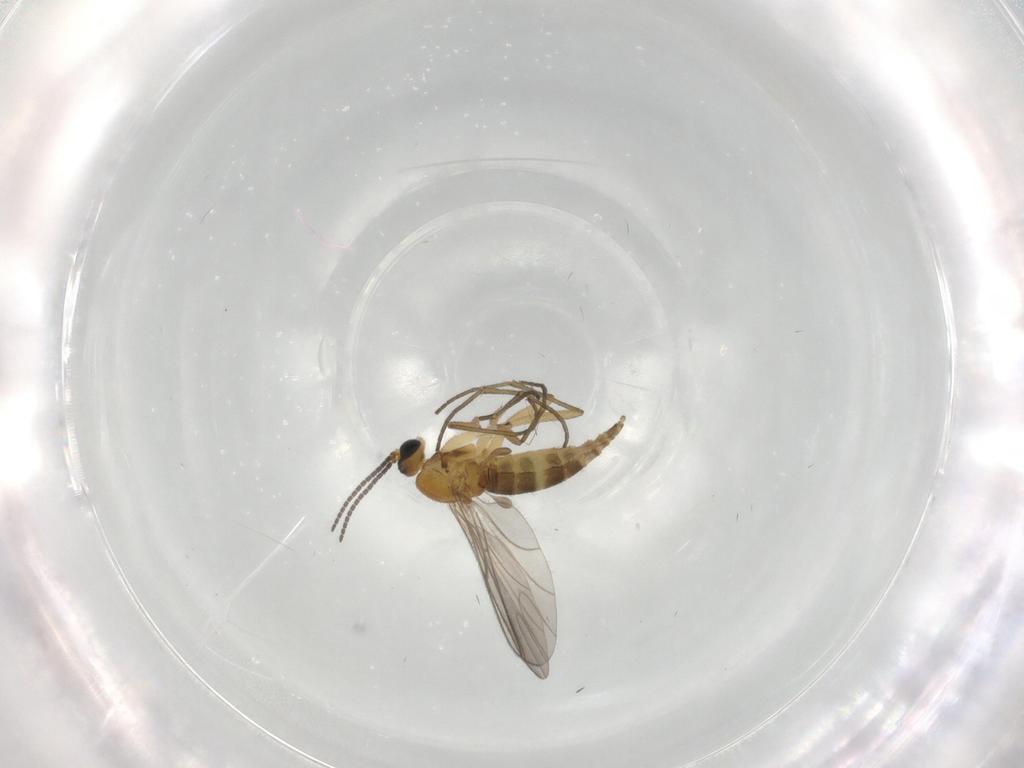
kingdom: Animalia
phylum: Arthropoda
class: Insecta
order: Diptera
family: Sciaridae
